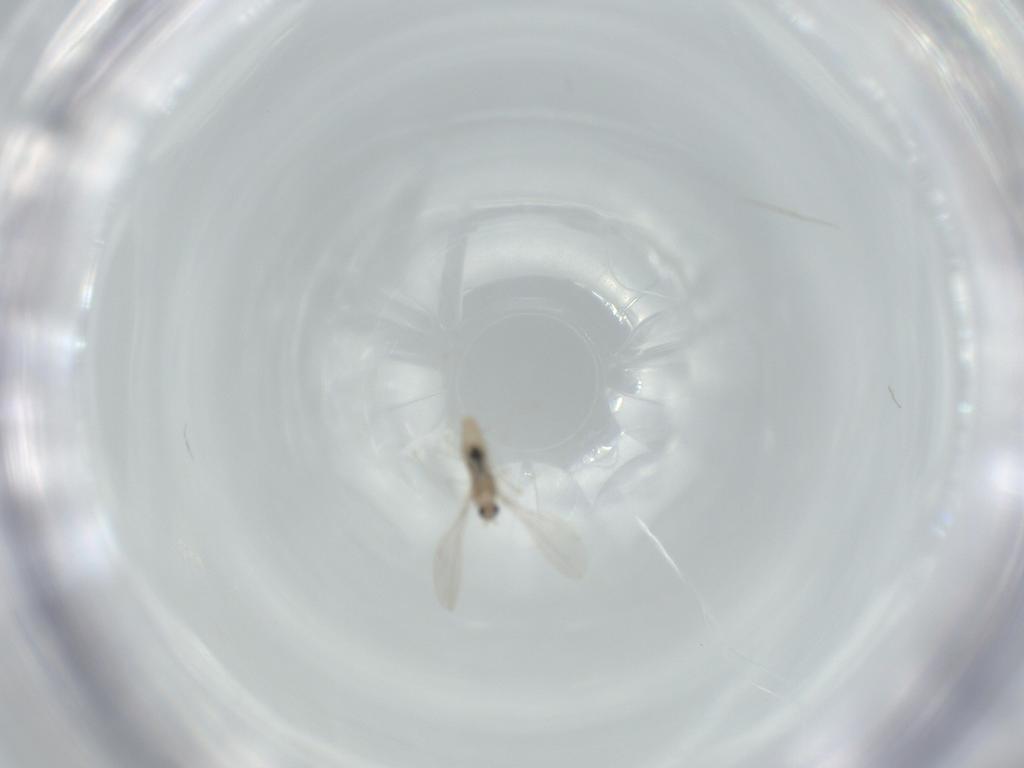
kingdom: Animalia
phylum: Arthropoda
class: Insecta
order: Diptera
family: Cecidomyiidae
